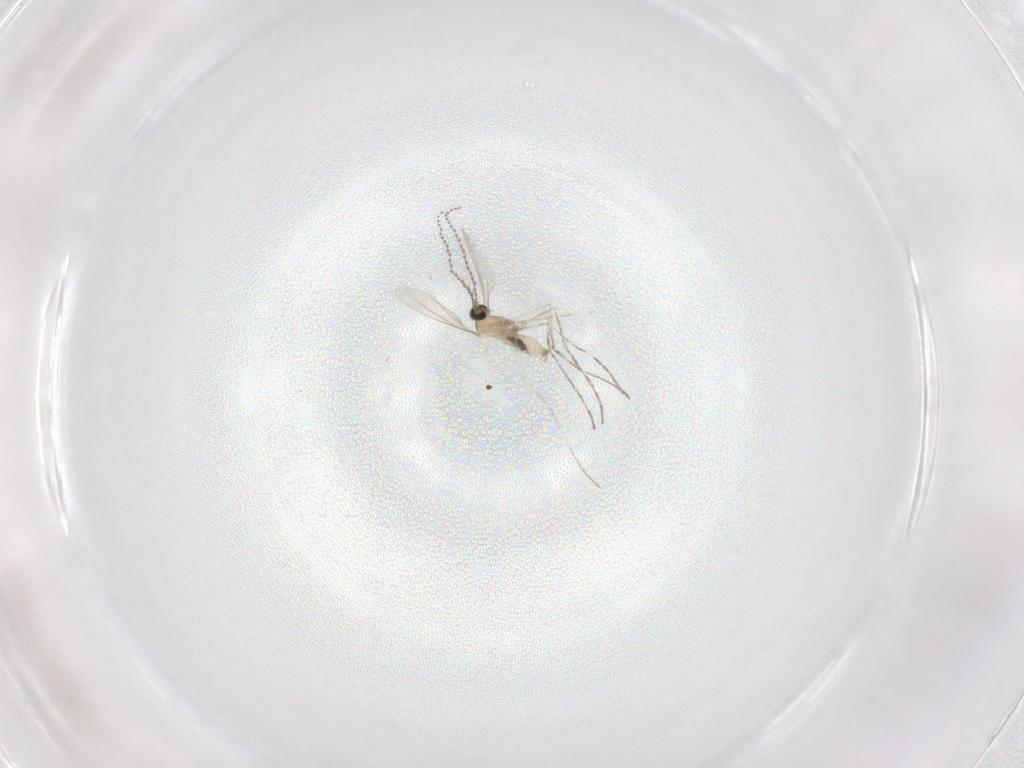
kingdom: Animalia
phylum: Arthropoda
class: Insecta
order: Diptera
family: Cecidomyiidae
